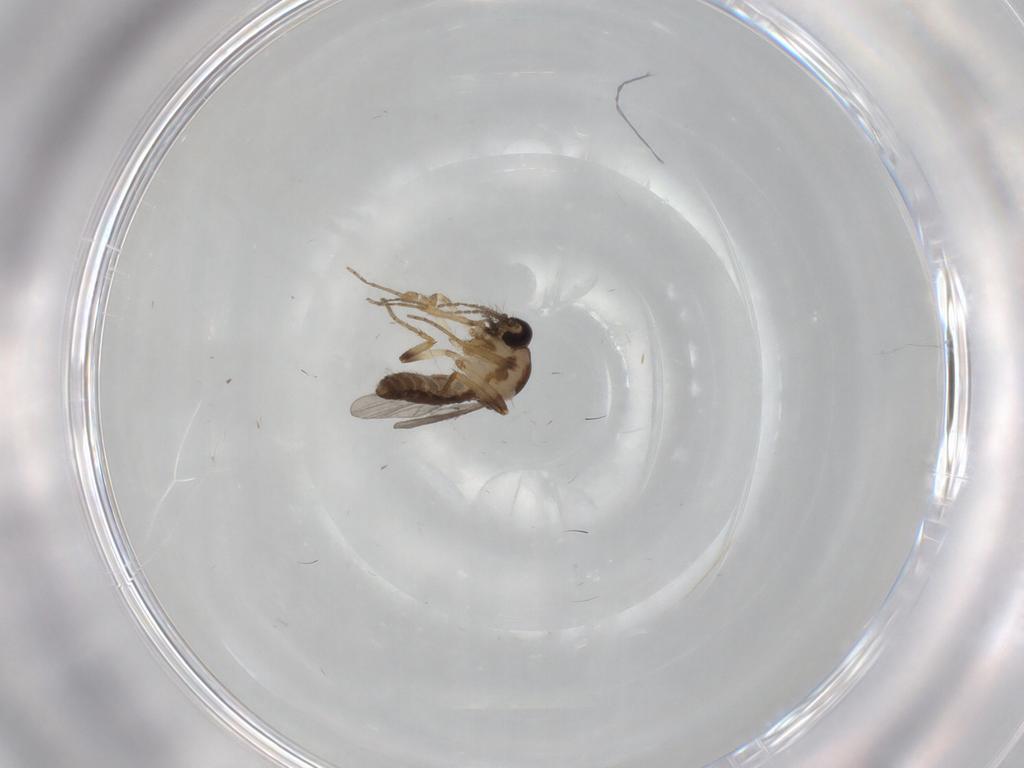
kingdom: Animalia
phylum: Arthropoda
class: Insecta
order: Diptera
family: Ceratopogonidae
